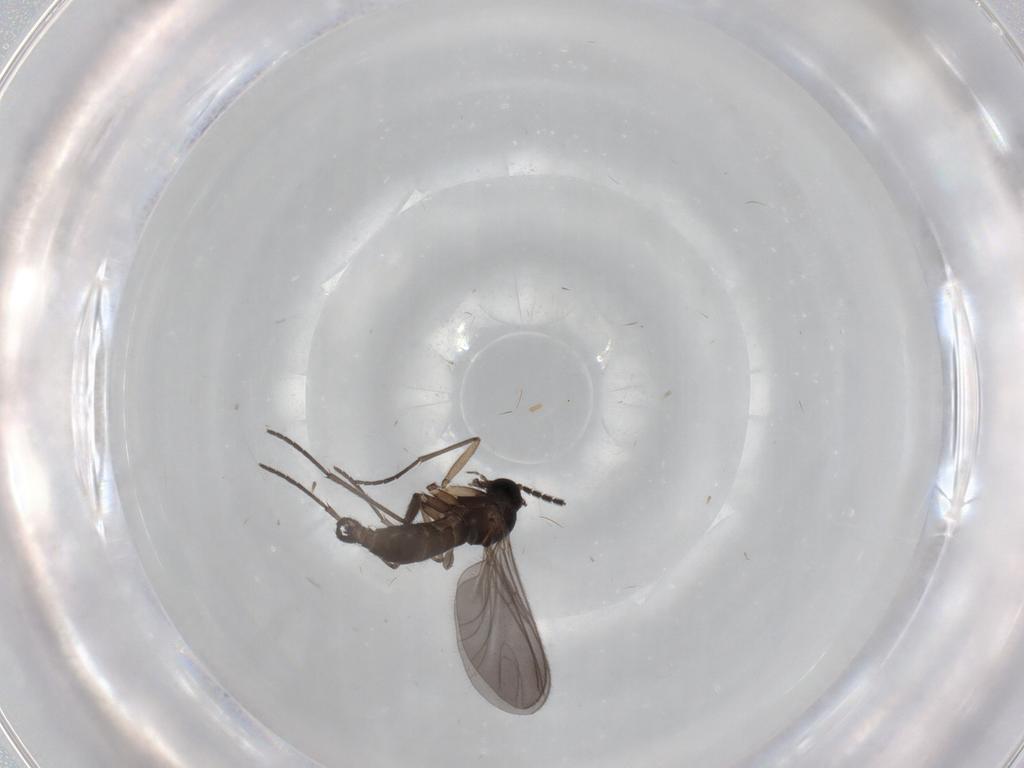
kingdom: Animalia
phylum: Arthropoda
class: Insecta
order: Diptera
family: Sciaridae
